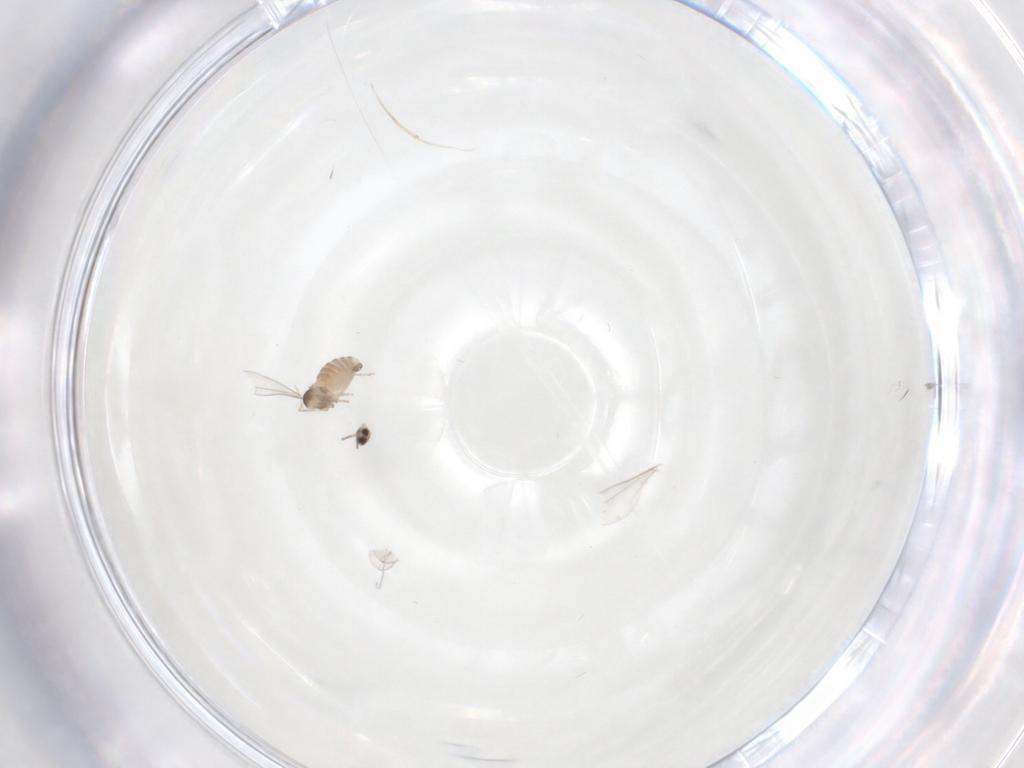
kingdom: Animalia
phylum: Arthropoda
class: Insecta
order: Diptera
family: Cecidomyiidae
